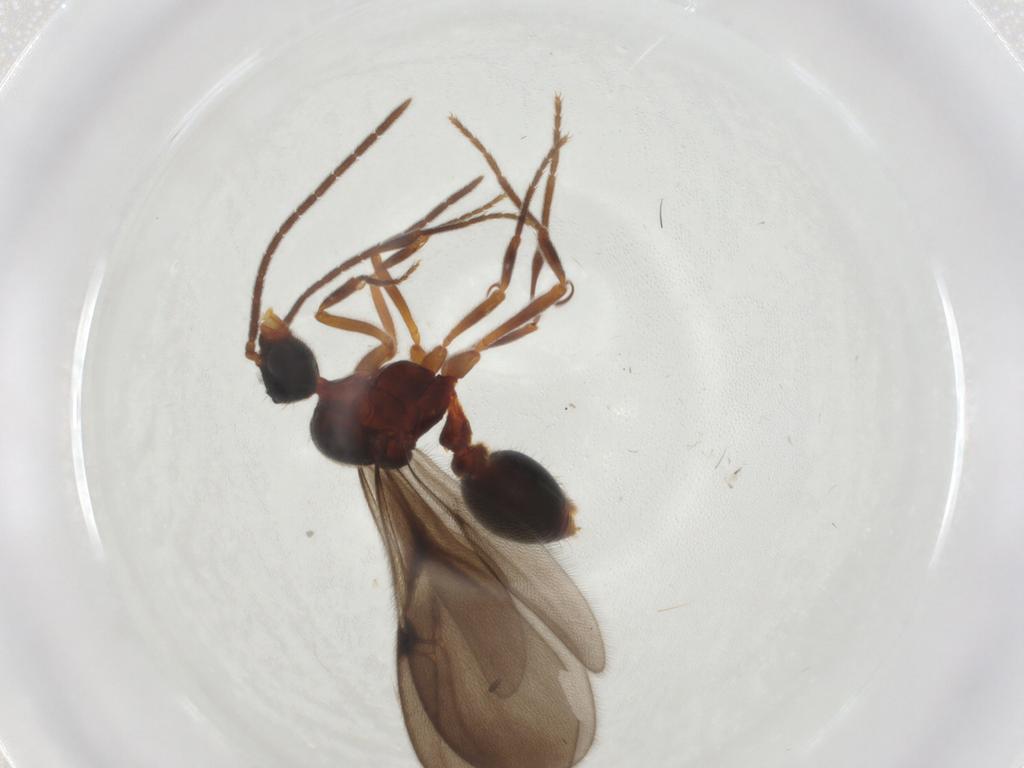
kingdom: Animalia
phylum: Arthropoda
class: Insecta
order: Hymenoptera
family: Formicidae
